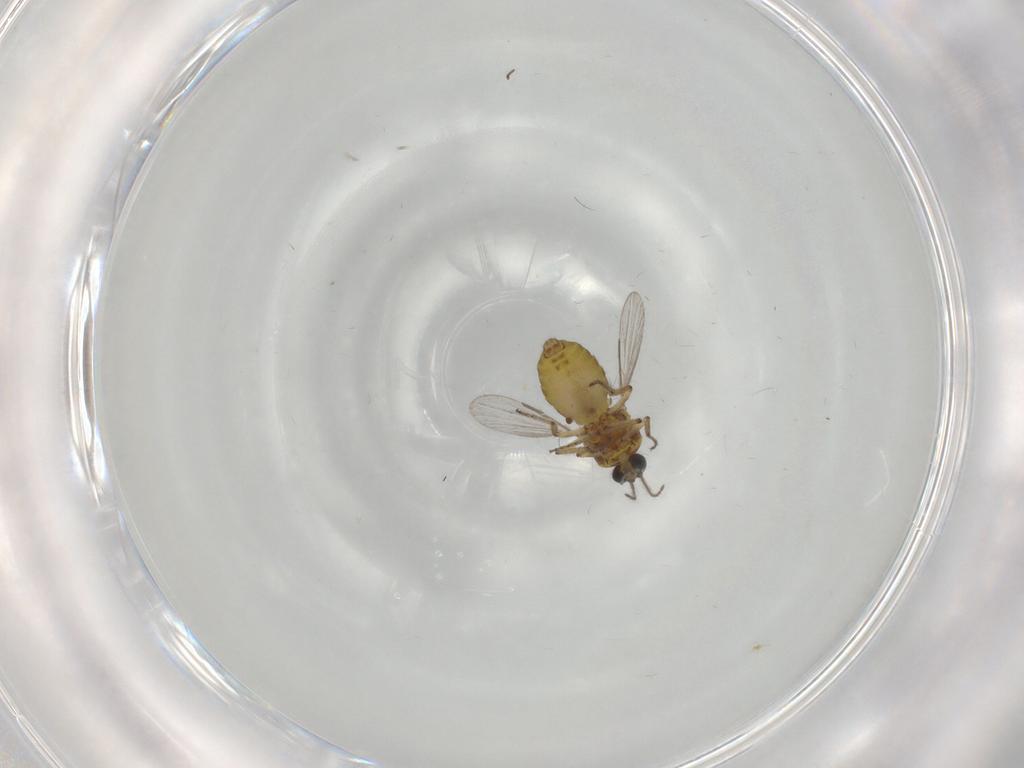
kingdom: Animalia
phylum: Arthropoda
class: Insecta
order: Diptera
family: Ceratopogonidae
